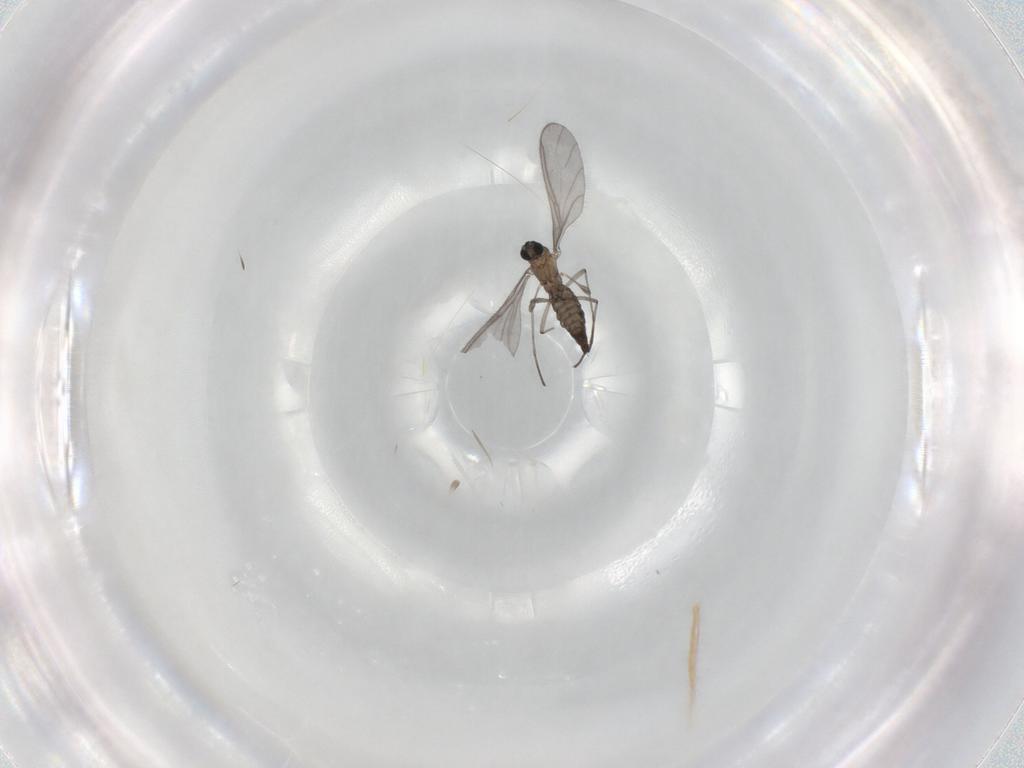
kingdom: Animalia
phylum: Arthropoda
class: Insecta
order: Diptera
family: Sciaridae
